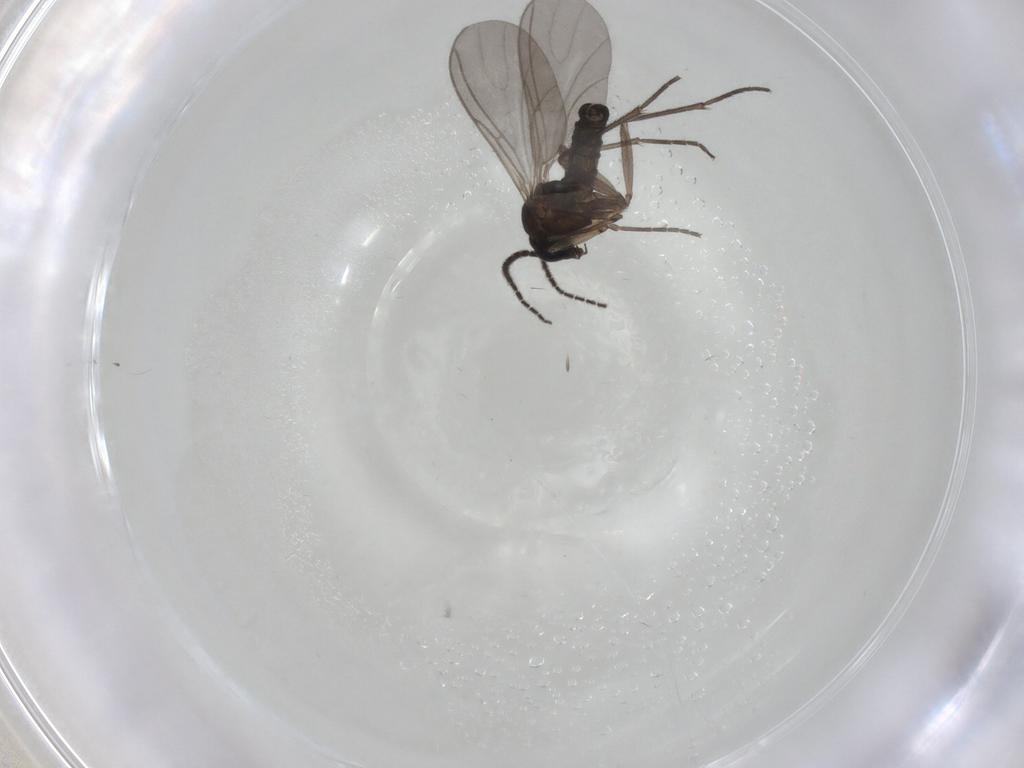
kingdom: Animalia
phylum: Arthropoda
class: Insecta
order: Diptera
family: Sciaridae
